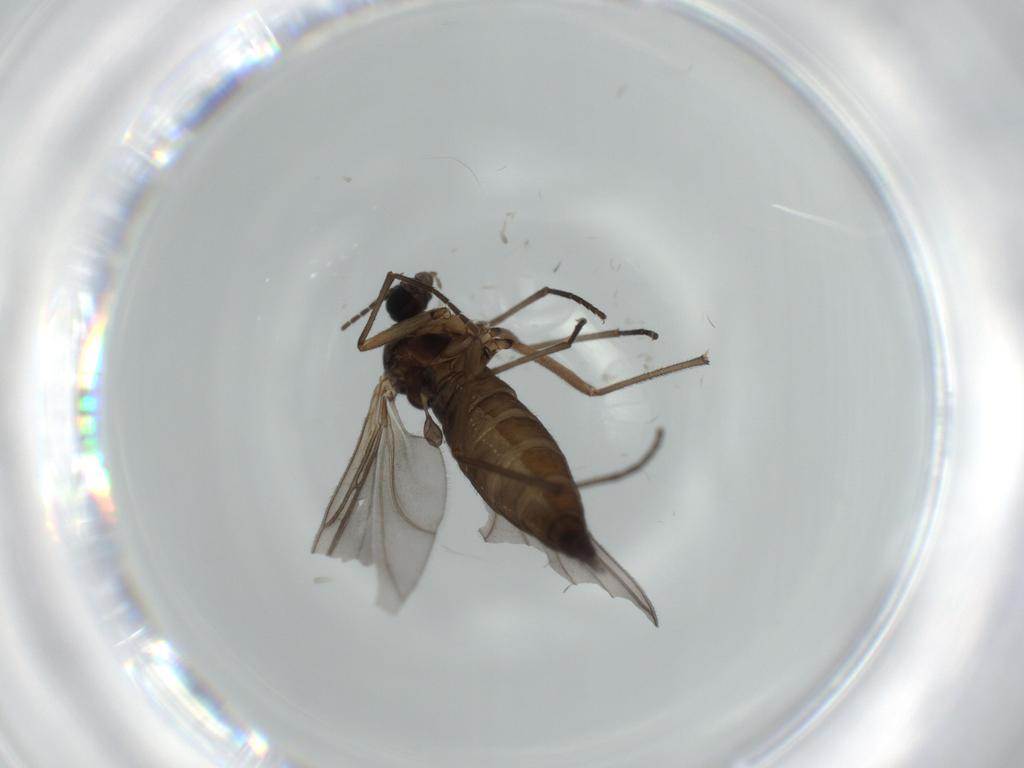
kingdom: Animalia
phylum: Arthropoda
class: Insecta
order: Diptera
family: Sciaridae
